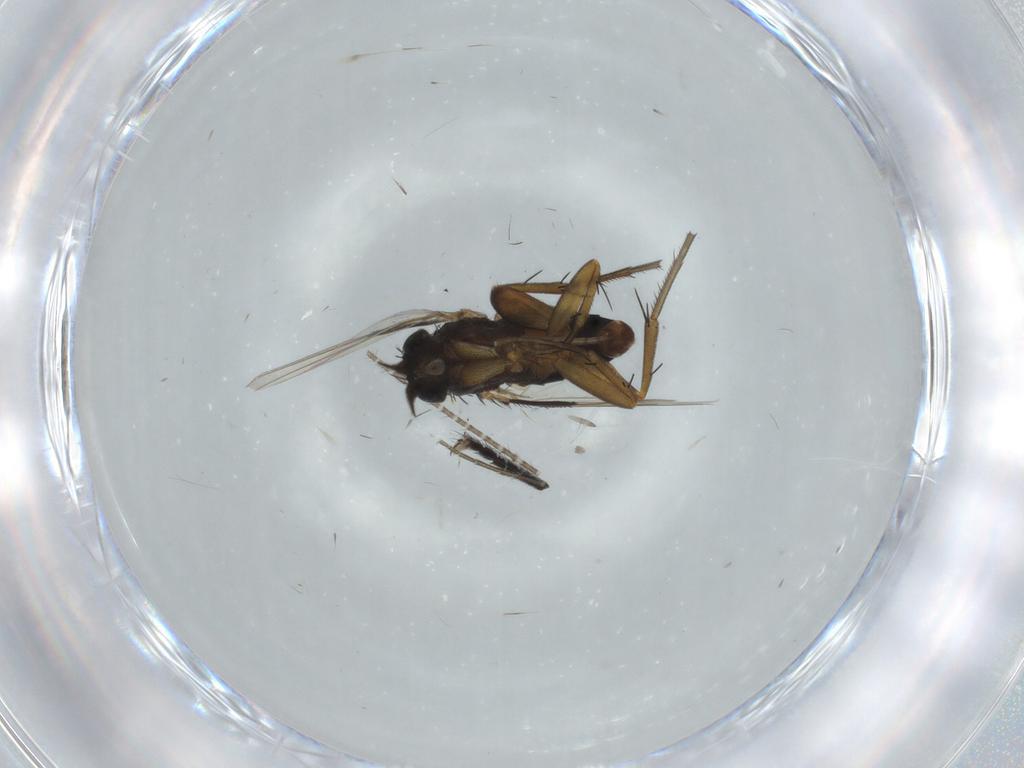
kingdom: Animalia
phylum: Arthropoda
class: Insecta
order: Diptera
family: Phoridae
